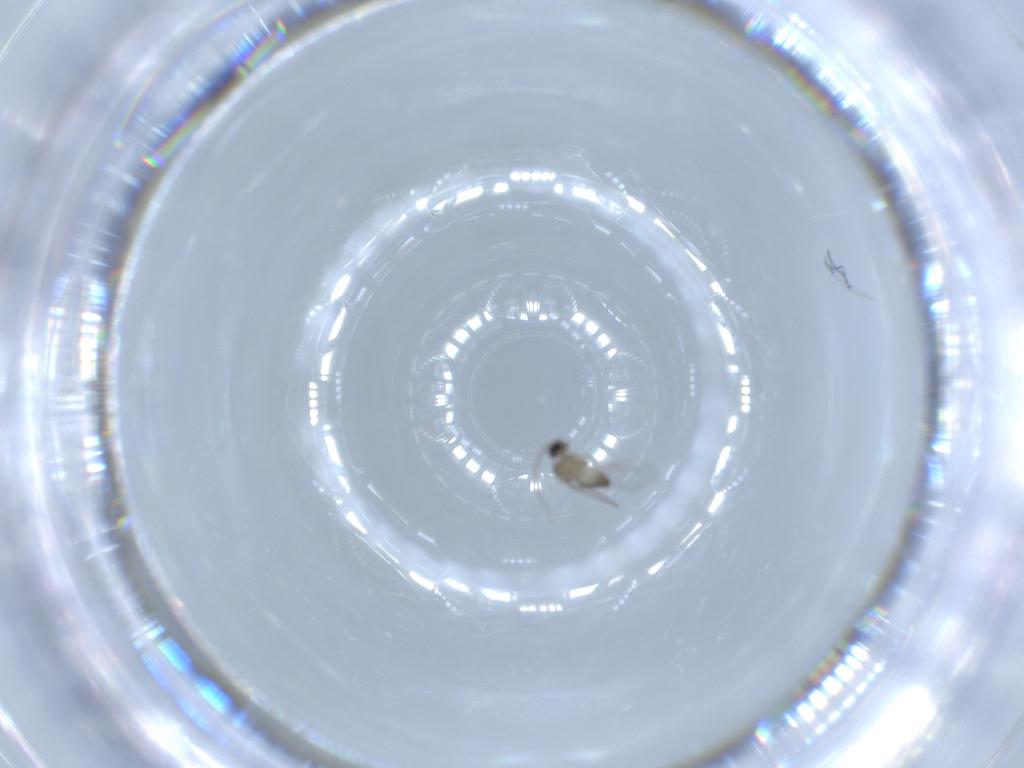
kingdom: Animalia
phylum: Arthropoda
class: Insecta
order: Diptera
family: Cecidomyiidae
